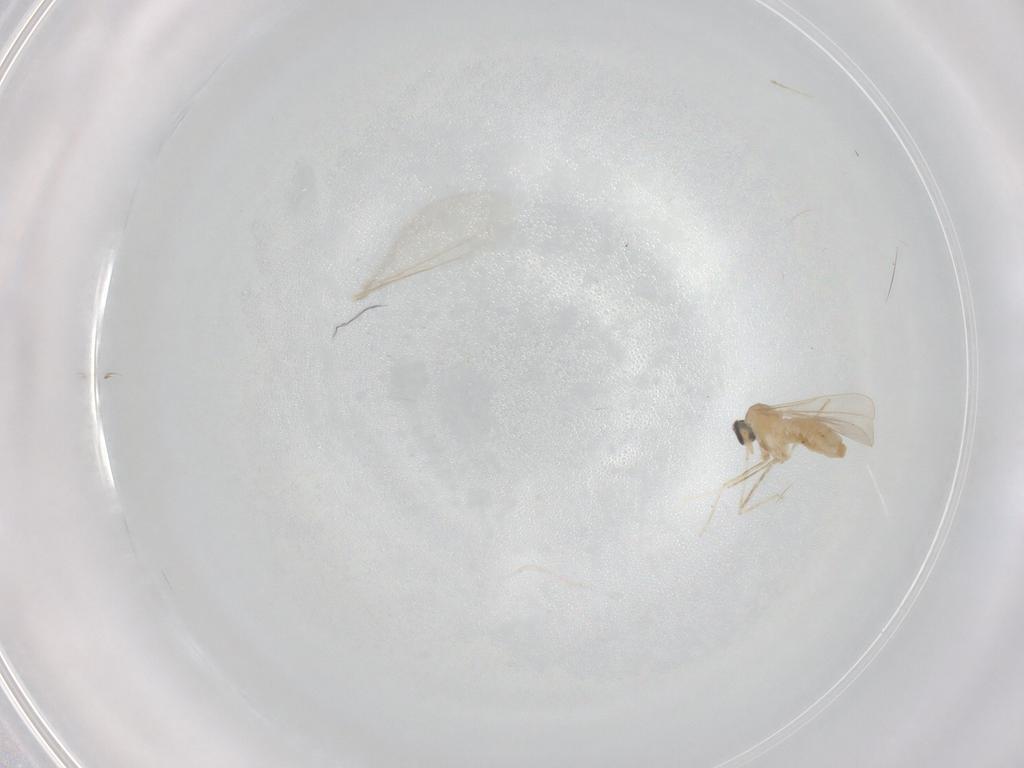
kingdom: Animalia
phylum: Arthropoda
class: Insecta
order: Diptera
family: Cecidomyiidae
